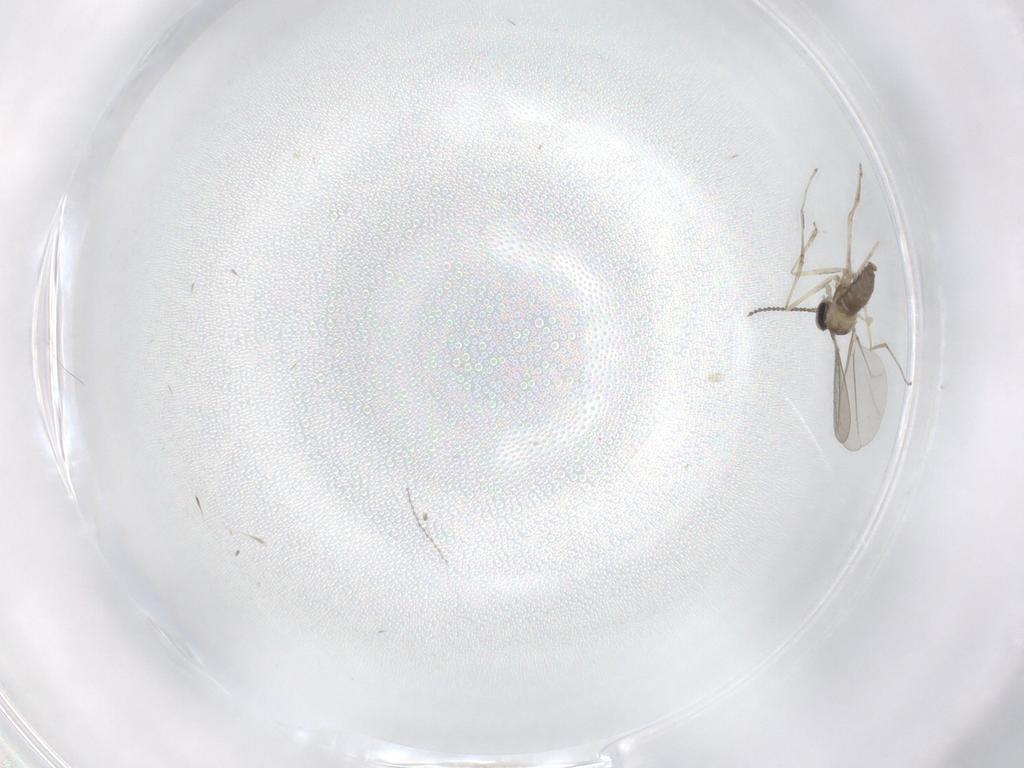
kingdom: Animalia
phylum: Arthropoda
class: Insecta
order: Diptera
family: Cecidomyiidae
